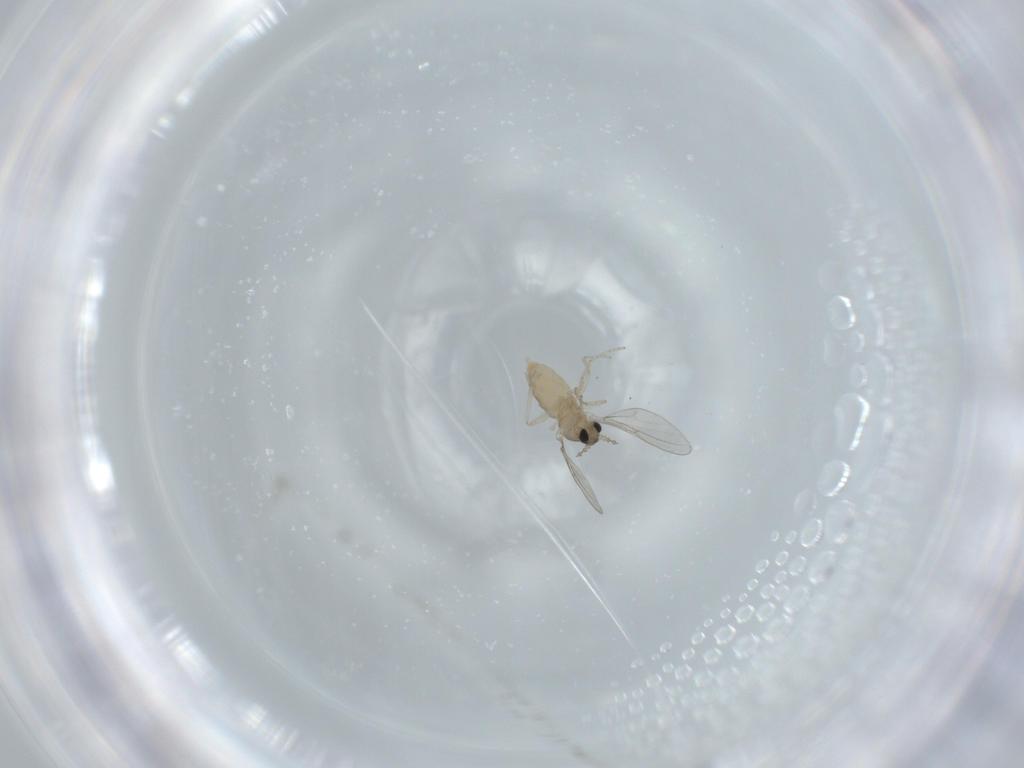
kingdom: Animalia
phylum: Arthropoda
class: Insecta
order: Diptera
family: Cecidomyiidae
